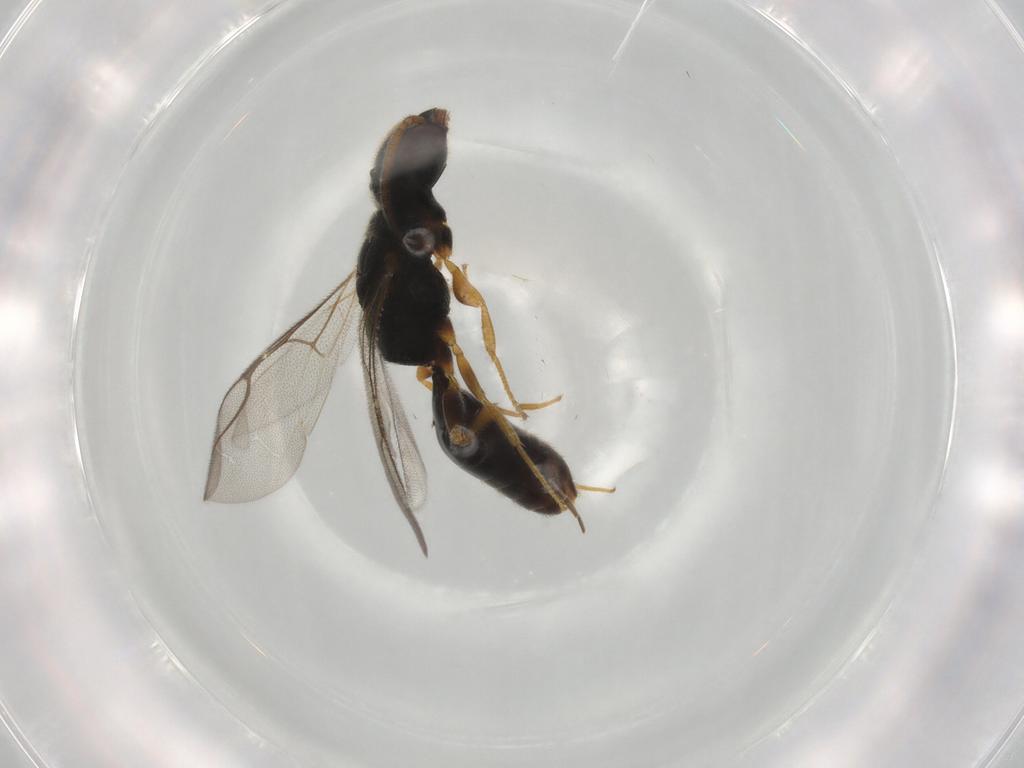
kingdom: Animalia
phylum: Arthropoda
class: Insecta
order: Hymenoptera
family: Bethylidae
